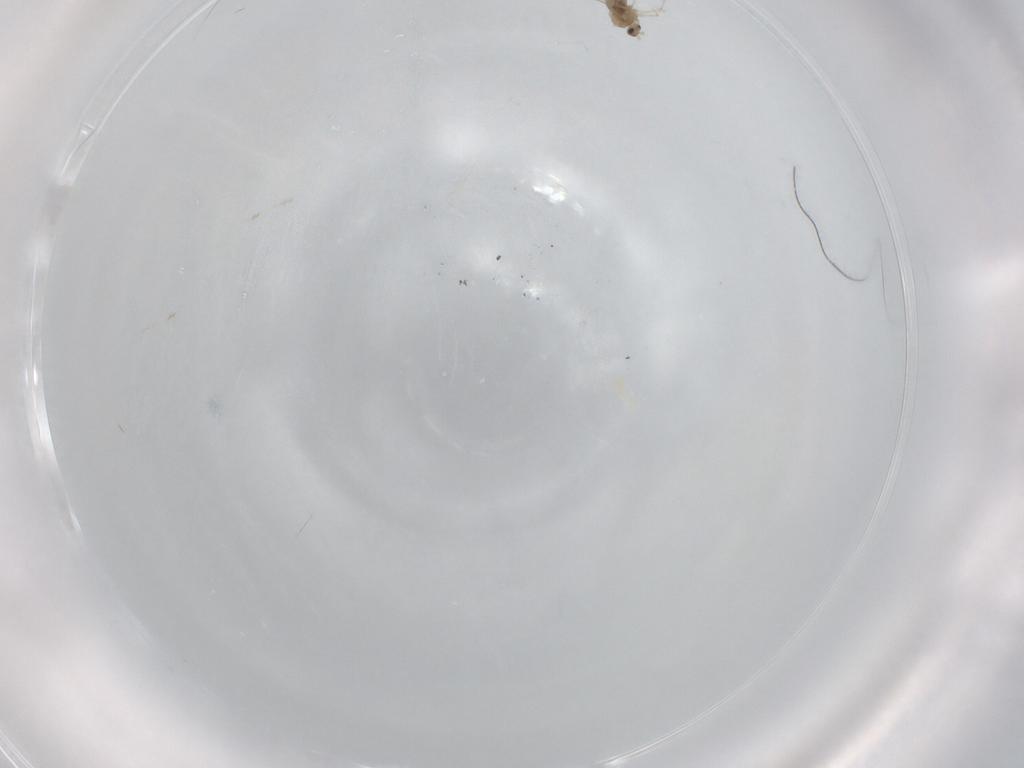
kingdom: Animalia
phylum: Arthropoda
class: Insecta
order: Diptera
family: Cecidomyiidae
